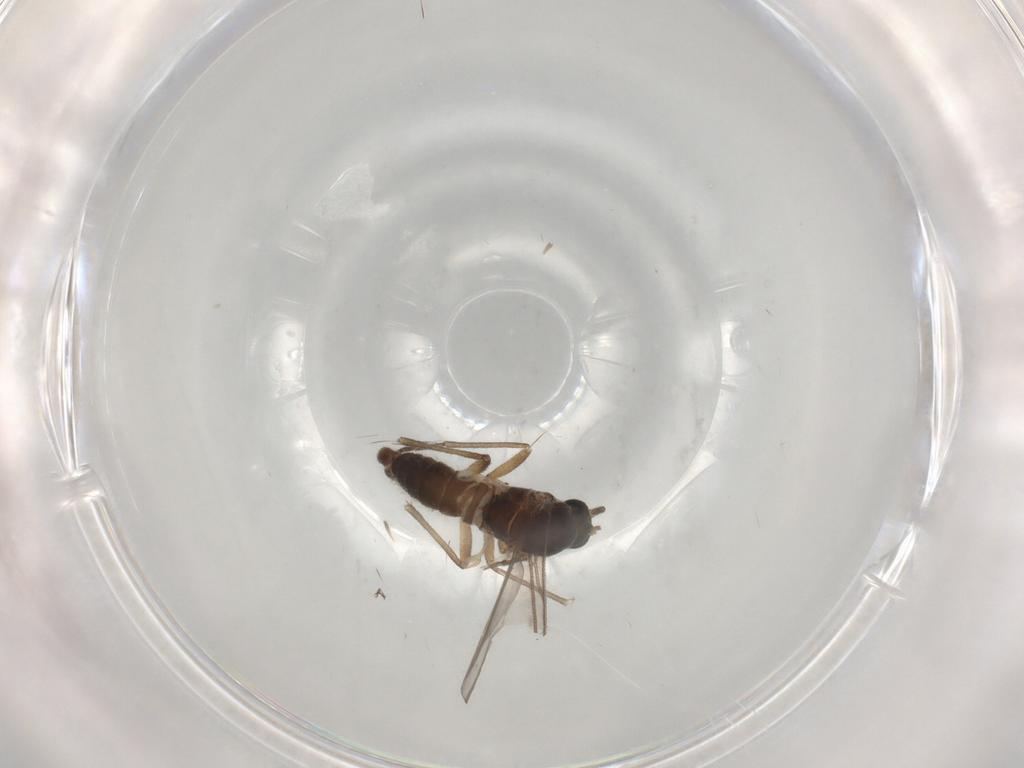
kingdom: Animalia
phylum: Arthropoda
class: Insecta
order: Diptera
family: Sciaridae
